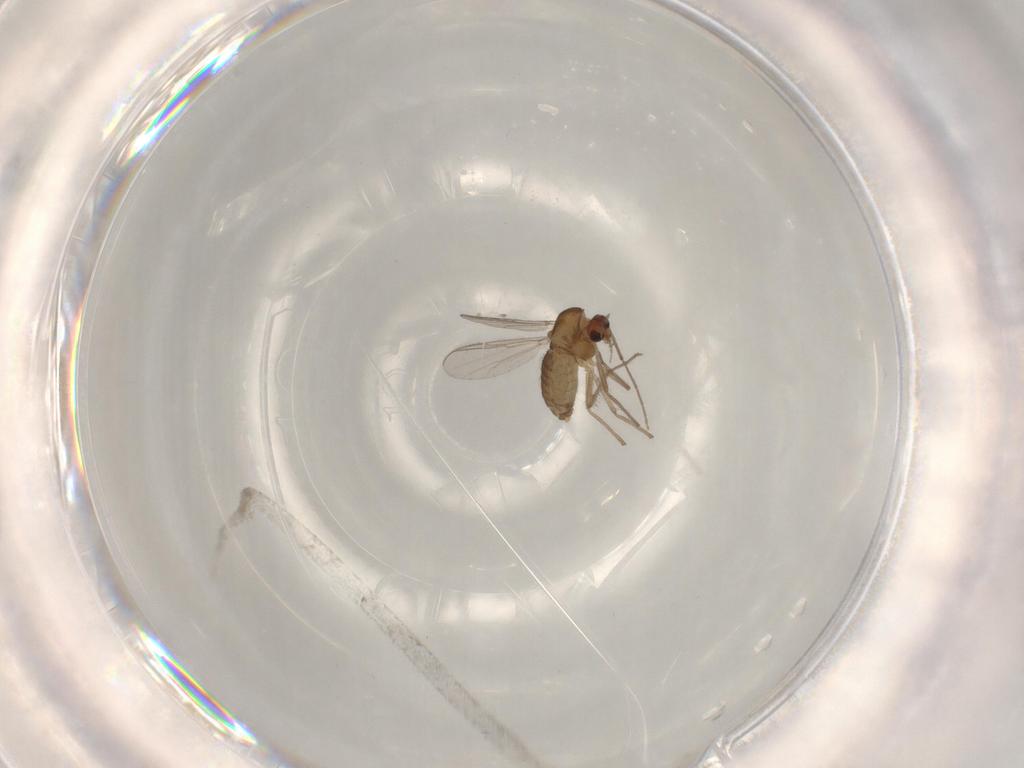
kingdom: Animalia
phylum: Arthropoda
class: Insecta
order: Diptera
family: Chironomidae
